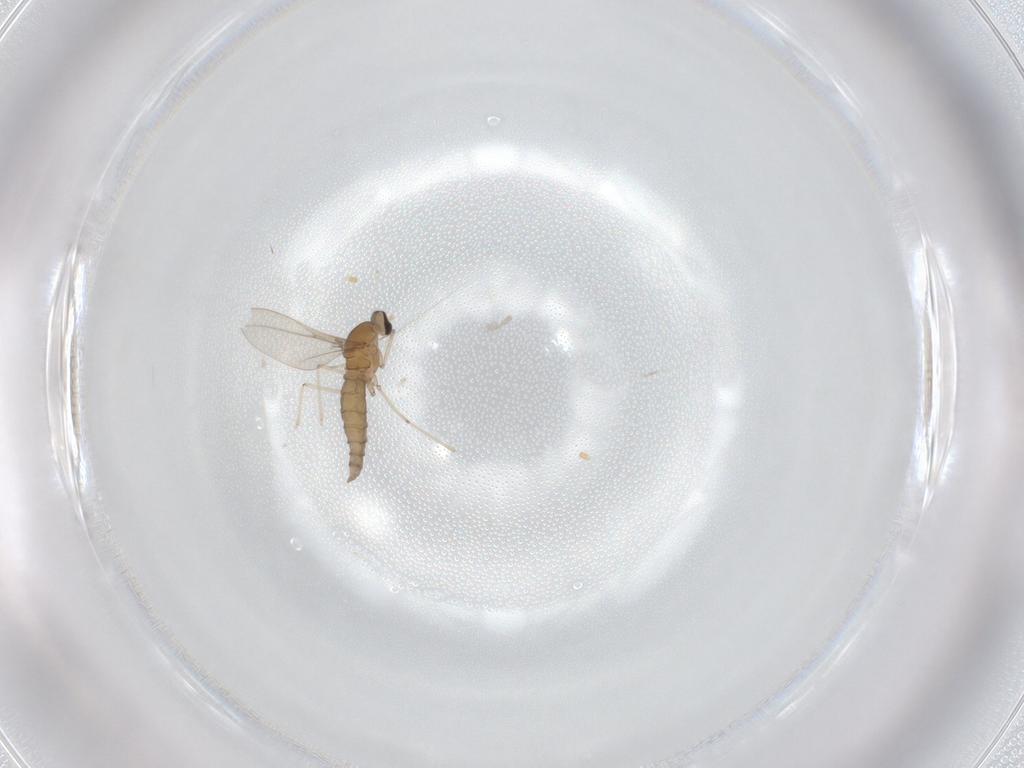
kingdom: Animalia
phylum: Arthropoda
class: Insecta
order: Diptera
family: Cecidomyiidae
